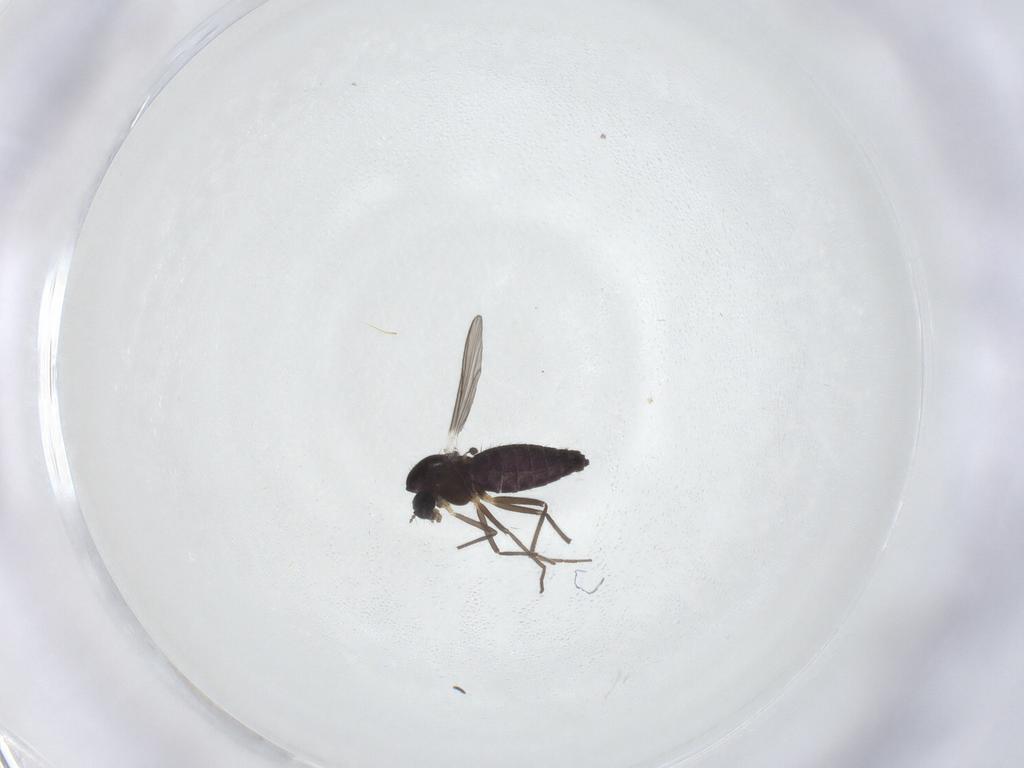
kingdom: Animalia
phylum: Arthropoda
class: Insecta
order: Diptera
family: Chironomidae
